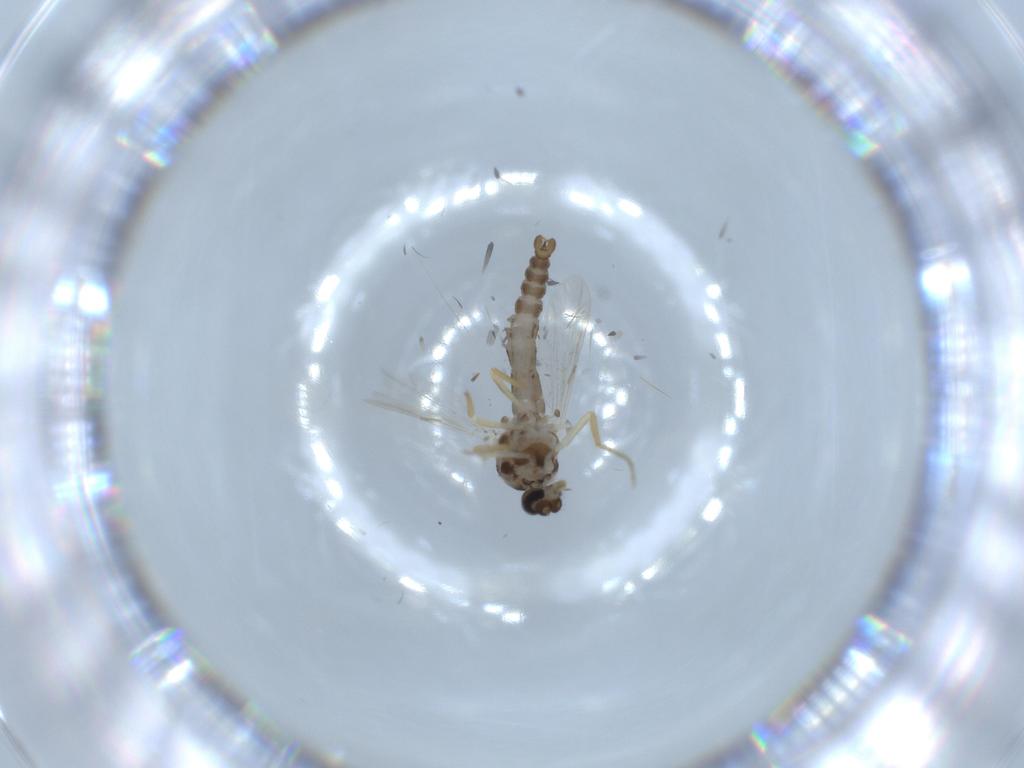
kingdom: Animalia
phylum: Arthropoda
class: Insecta
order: Diptera
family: Ceratopogonidae
